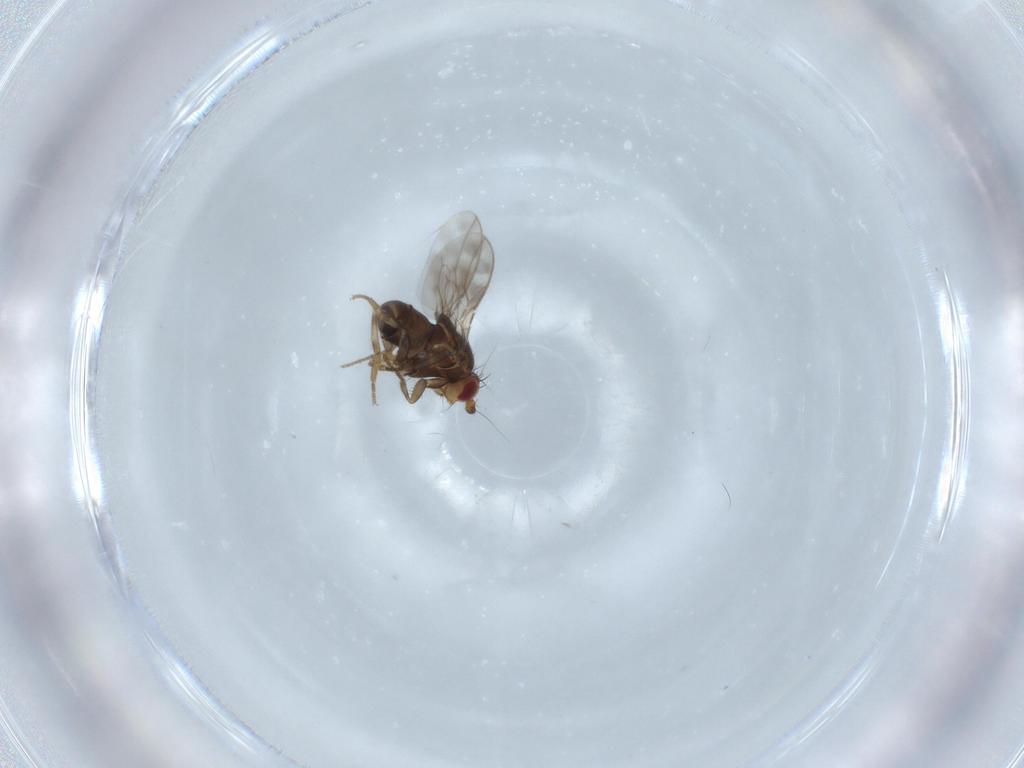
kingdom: Animalia
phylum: Arthropoda
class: Insecta
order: Diptera
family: Sphaeroceridae
